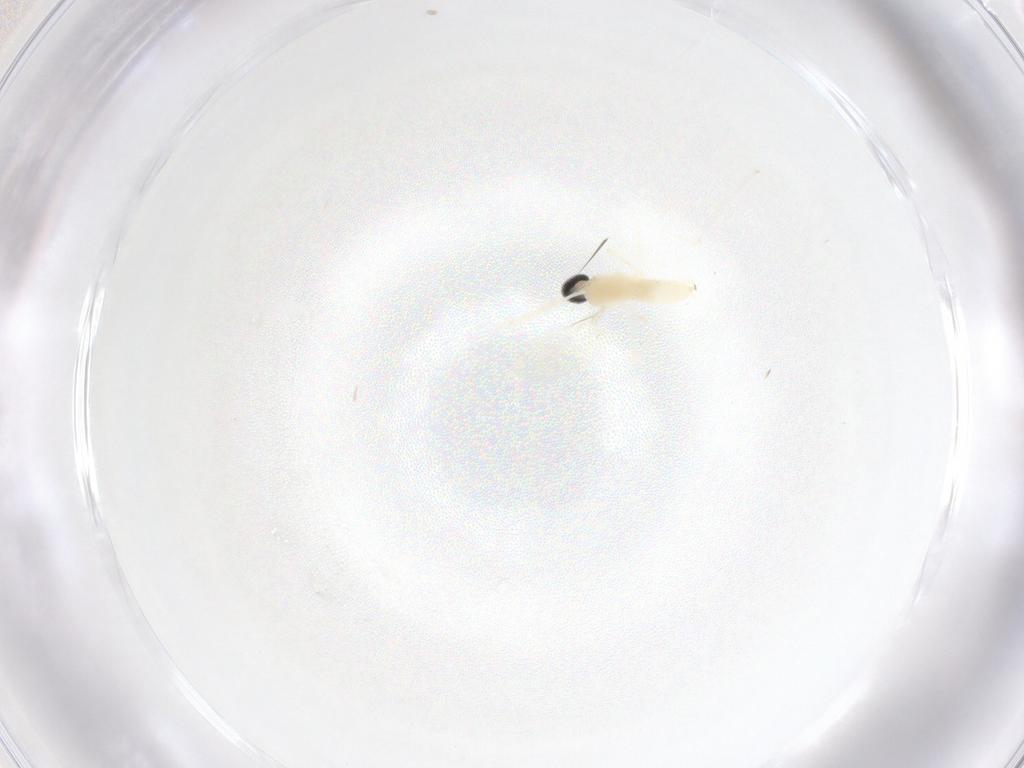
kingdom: Animalia
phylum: Arthropoda
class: Insecta
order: Diptera
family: Cecidomyiidae
